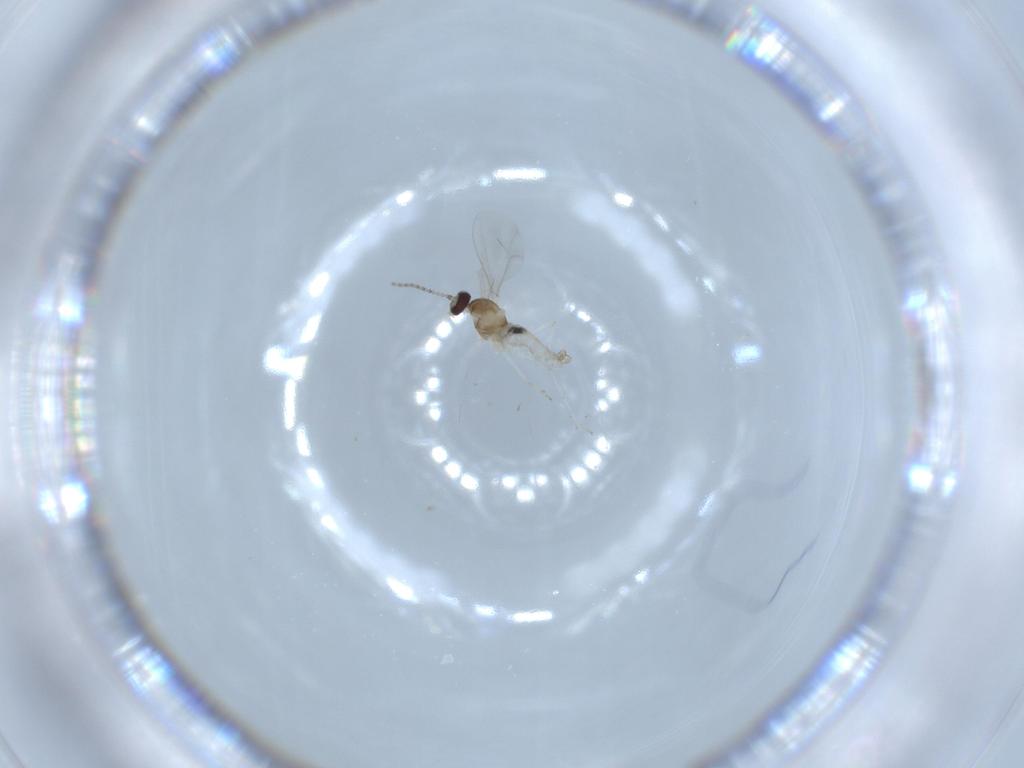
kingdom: Animalia
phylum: Arthropoda
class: Insecta
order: Diptera
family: Cecidomyiidae
